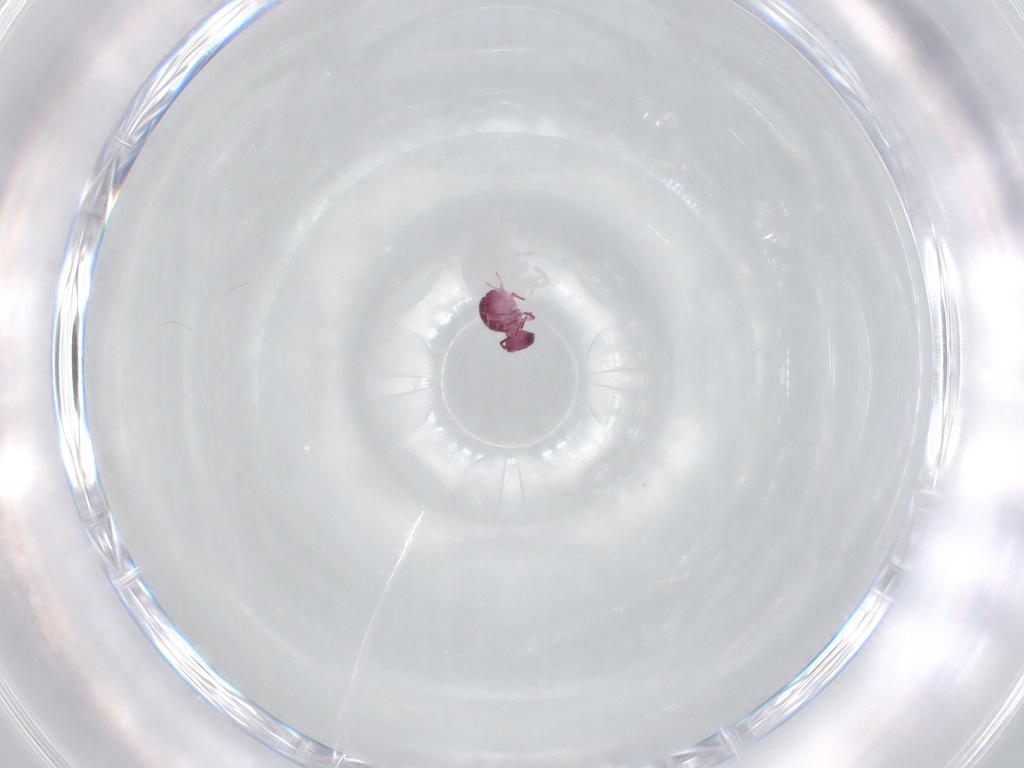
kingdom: Animalia
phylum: Arthropoda
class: Collembola
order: Symphypleona
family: Sminthurididae
